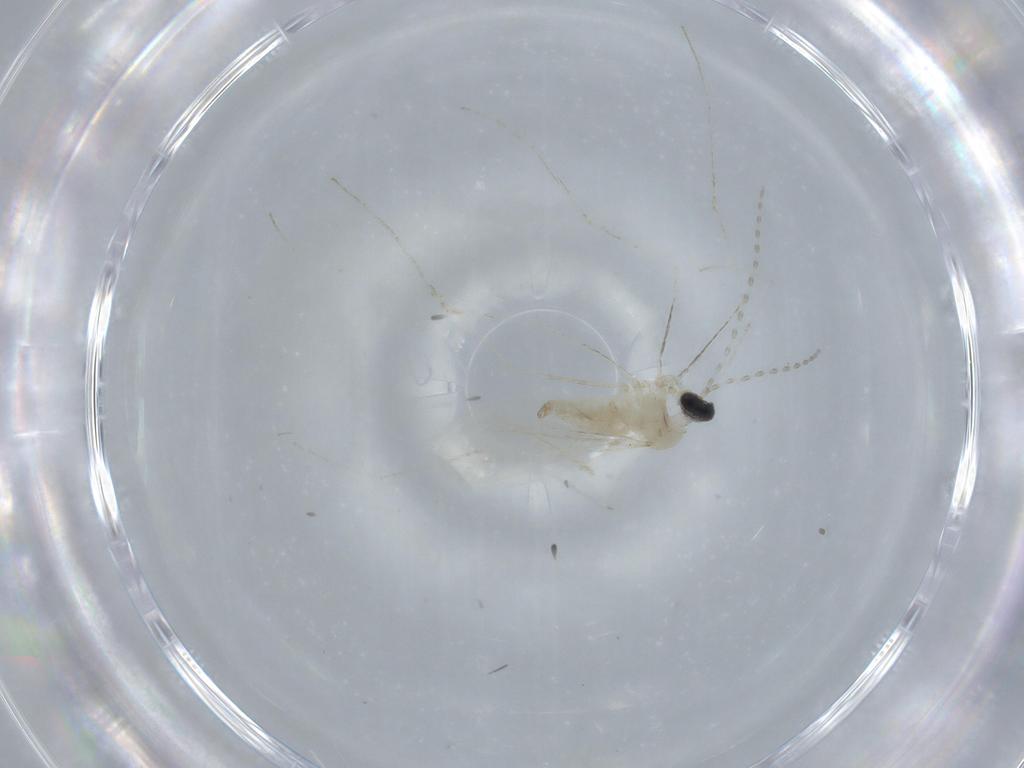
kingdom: Animalia
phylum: Arthropoda
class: Insecta
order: Diptera
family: Cecidomyiidae
